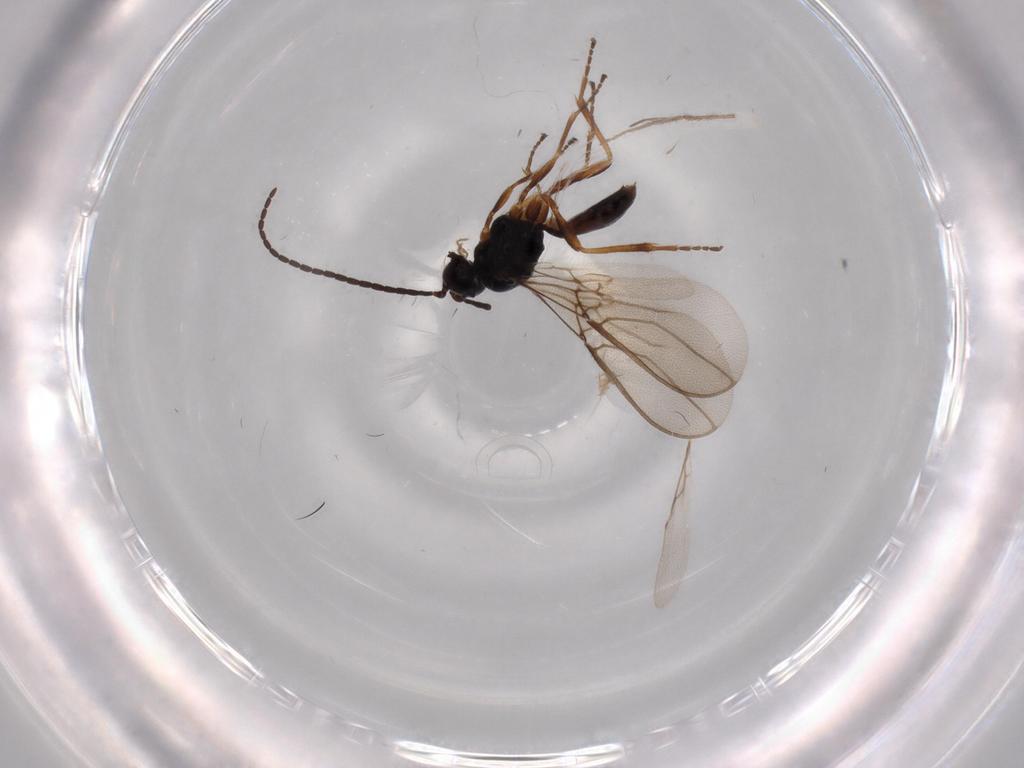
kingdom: Animalia
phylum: Arthropoda
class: Insecta
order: Hymenoptera
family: Braconidae
